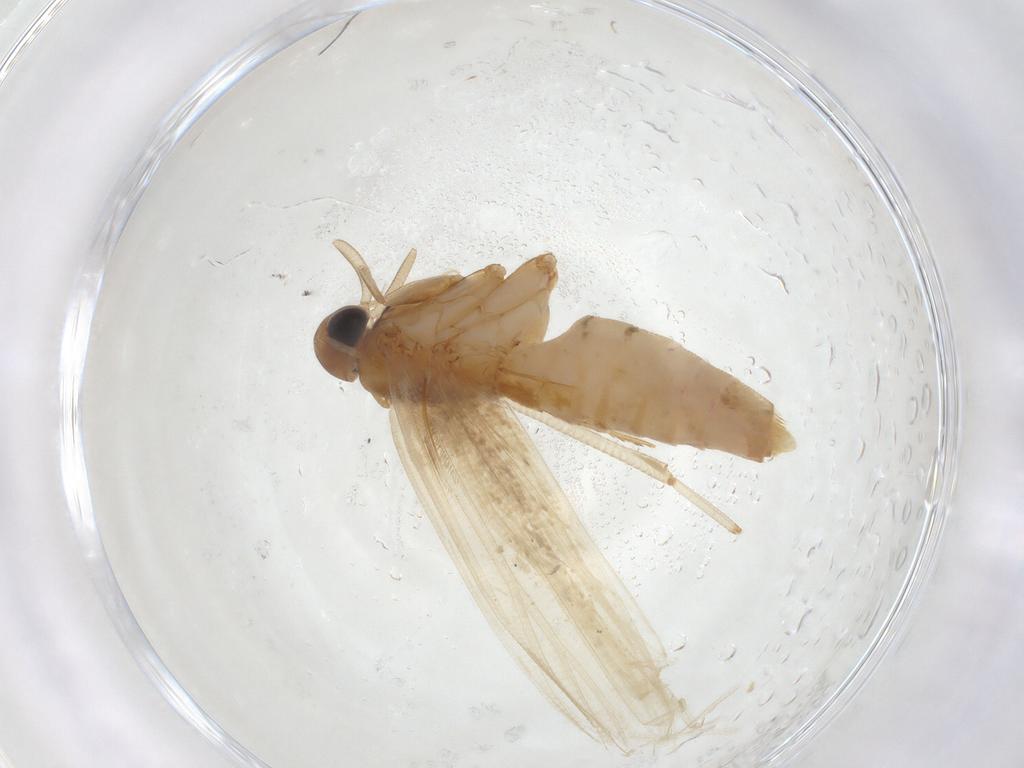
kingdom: Animalia
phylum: Arthropoda
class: Insecta
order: Lepidoptera
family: Gelechiidae
